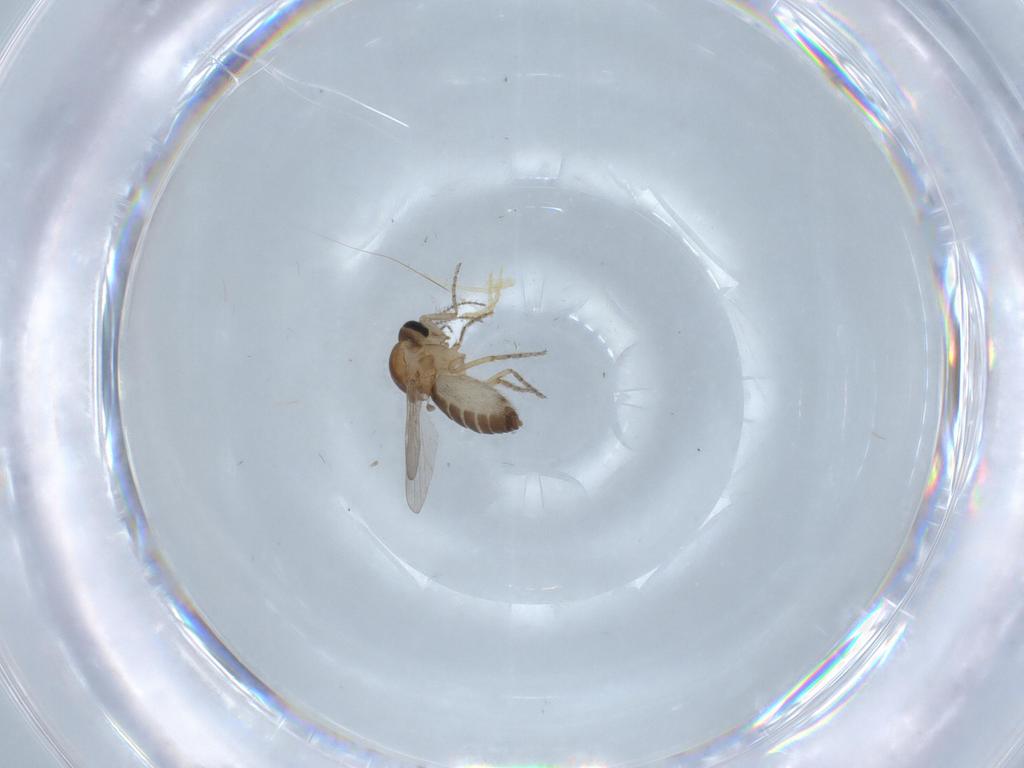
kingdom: Animalia
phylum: Arthropoda
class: Insecta
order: Diptera
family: Ceratopogonidae
